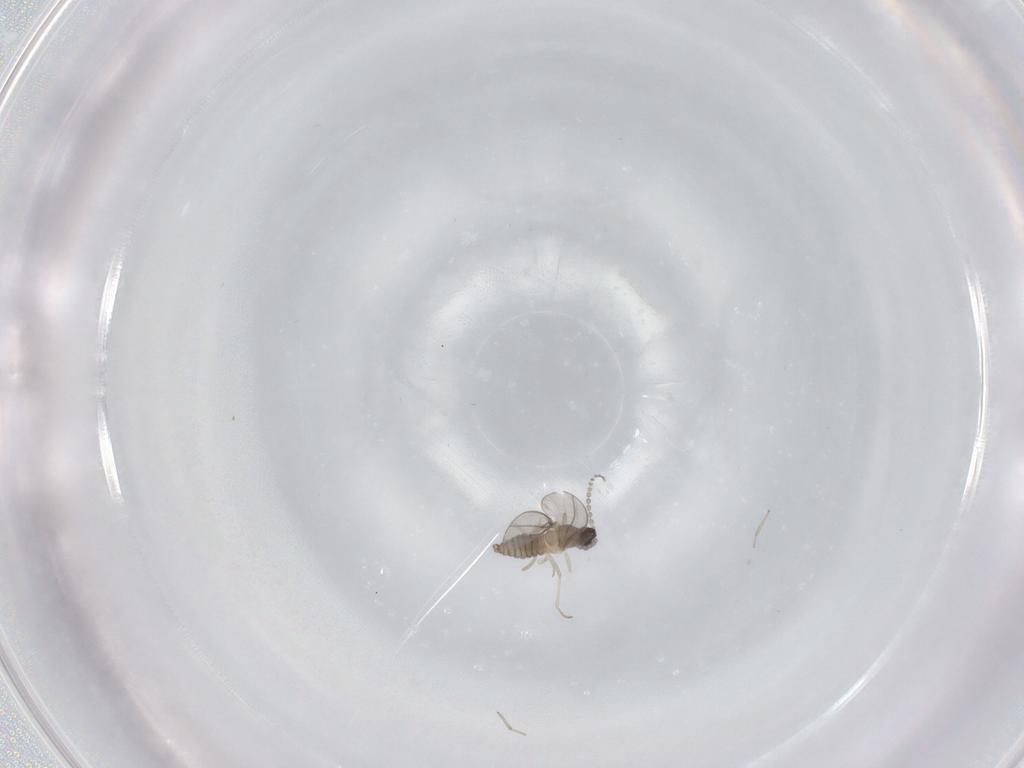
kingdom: Animalia
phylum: Arthropoda
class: Insecta
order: Diptera
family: Cecidomyiidae
